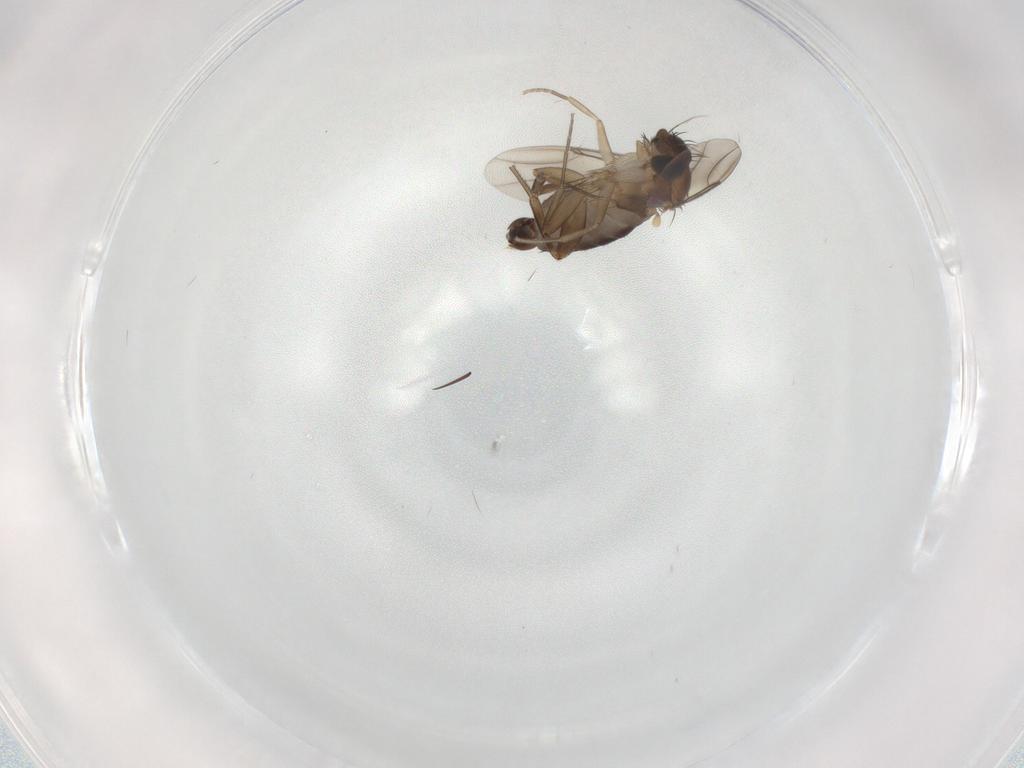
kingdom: Animalia
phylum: Arthropoda
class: Insecta
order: Diptera
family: Phoridae
